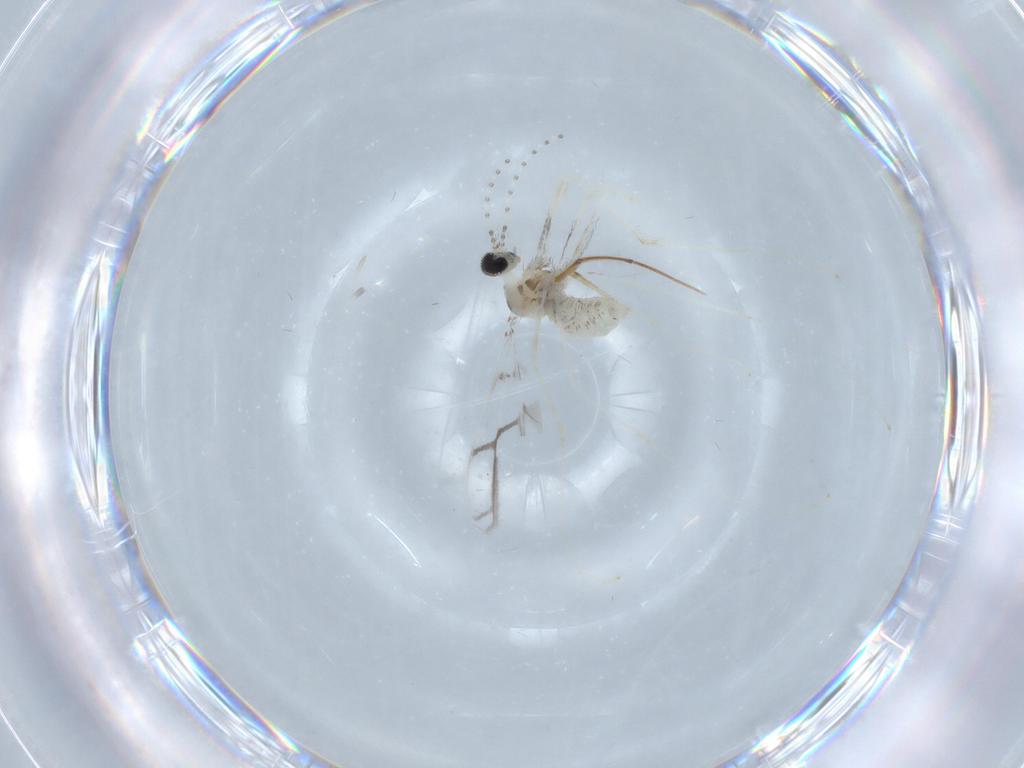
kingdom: Animalia
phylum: Arthropoda
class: Insecta
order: Diptera
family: Cecidomyiidae
